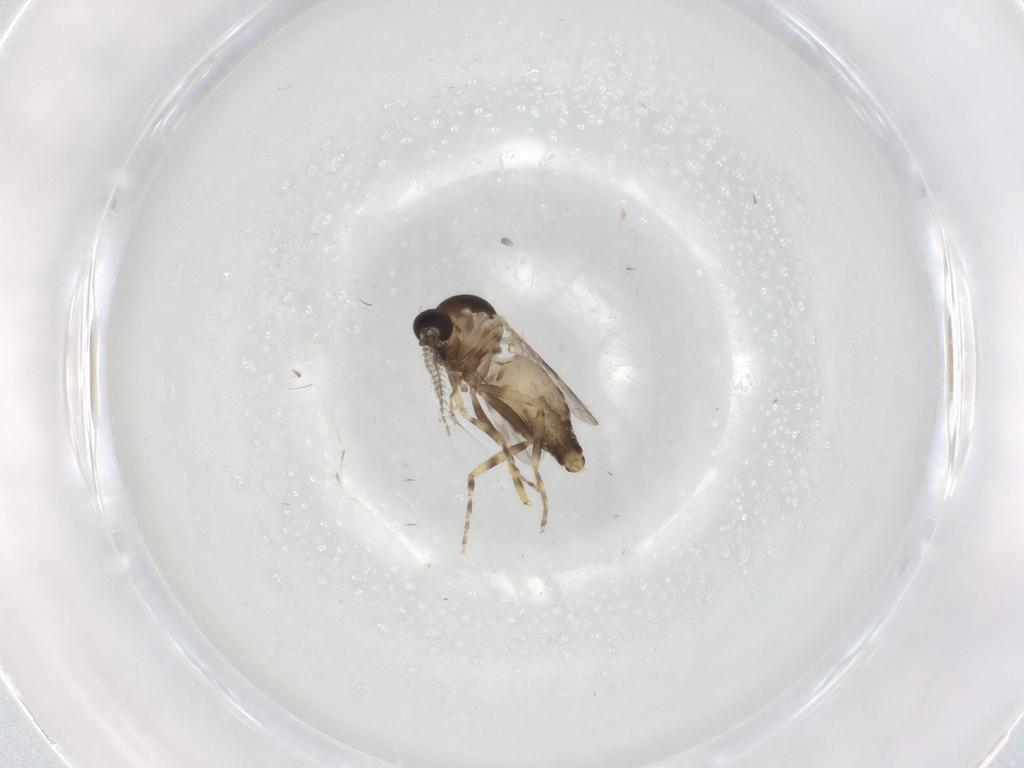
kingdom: Animalia
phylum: Arthropoda
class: Insecta
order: Diptera
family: Ceratopogonidae
